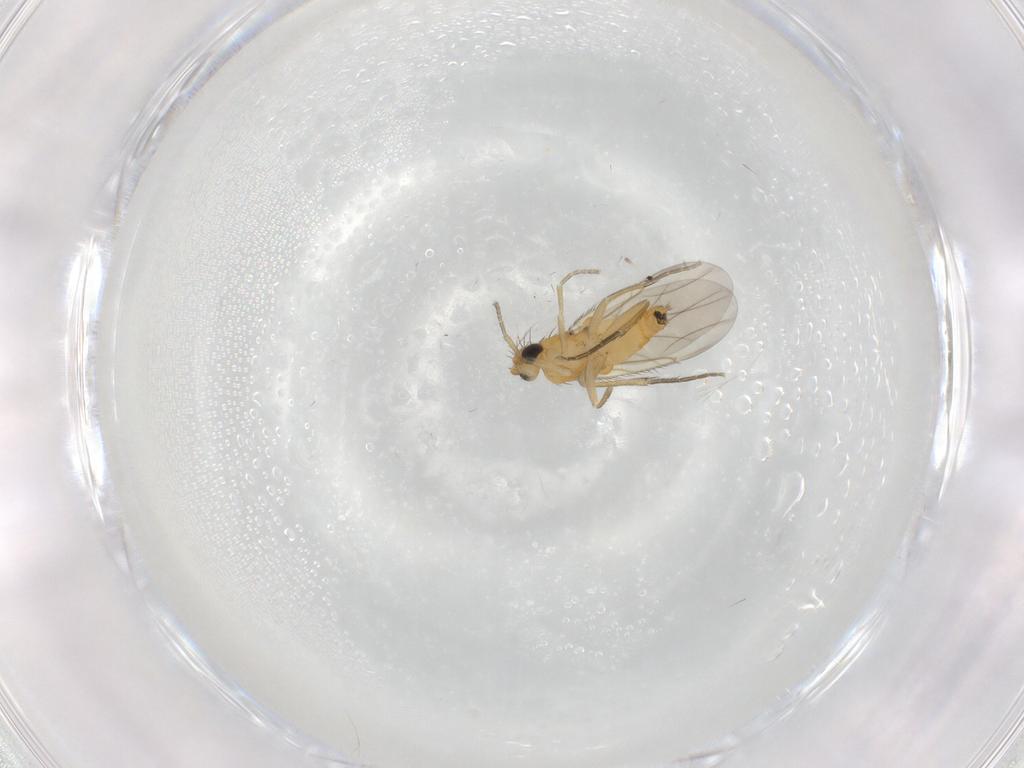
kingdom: Animalia
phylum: Arthropoda
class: Insecta
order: Diptera
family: Phoridae
